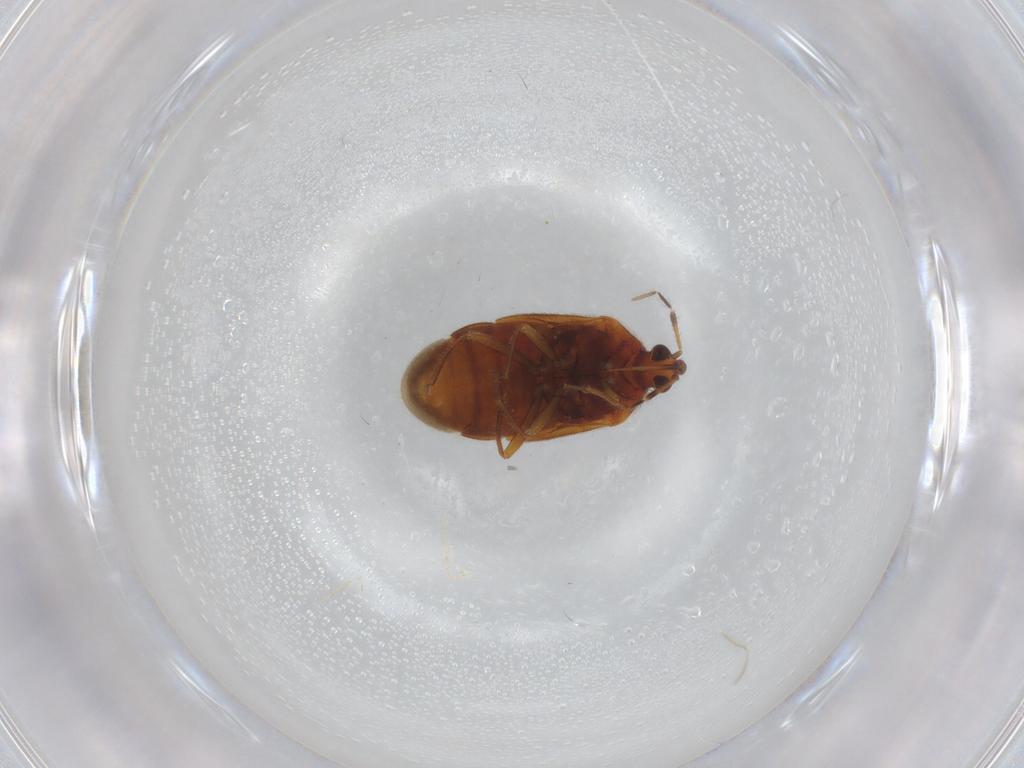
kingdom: Animalia
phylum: Arthropoda
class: Insecta
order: Hemiptera
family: Anthocoridae
